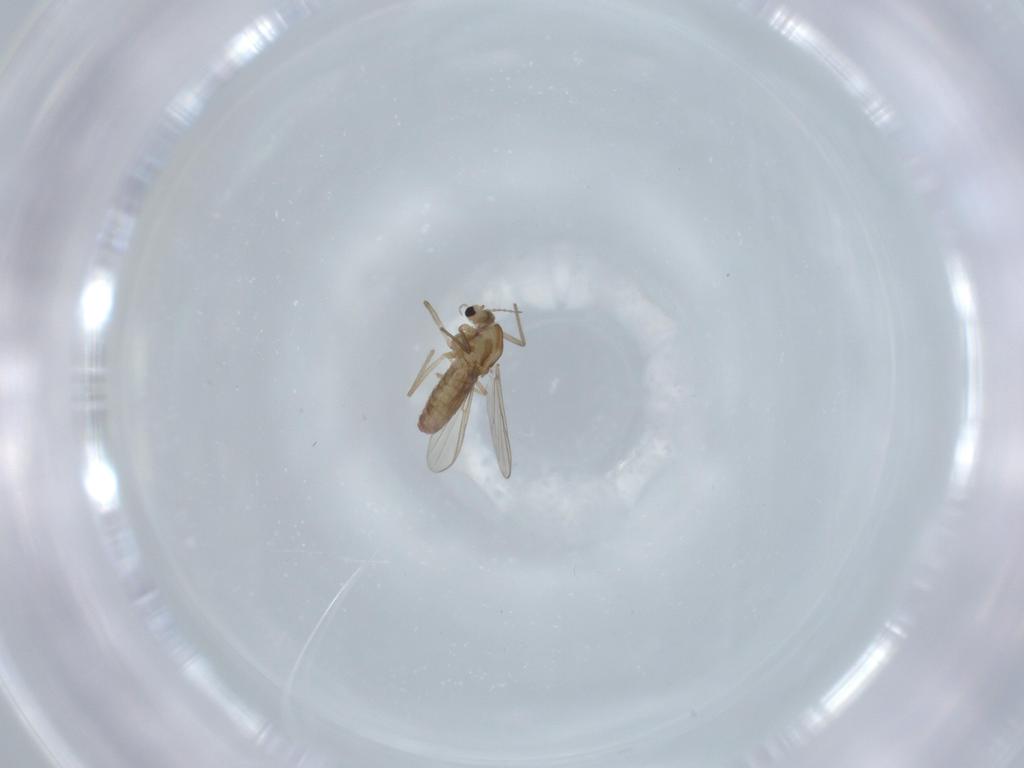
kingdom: Animalia
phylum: Arthropoda
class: Insecta
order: Diptera
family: Chironomidae
